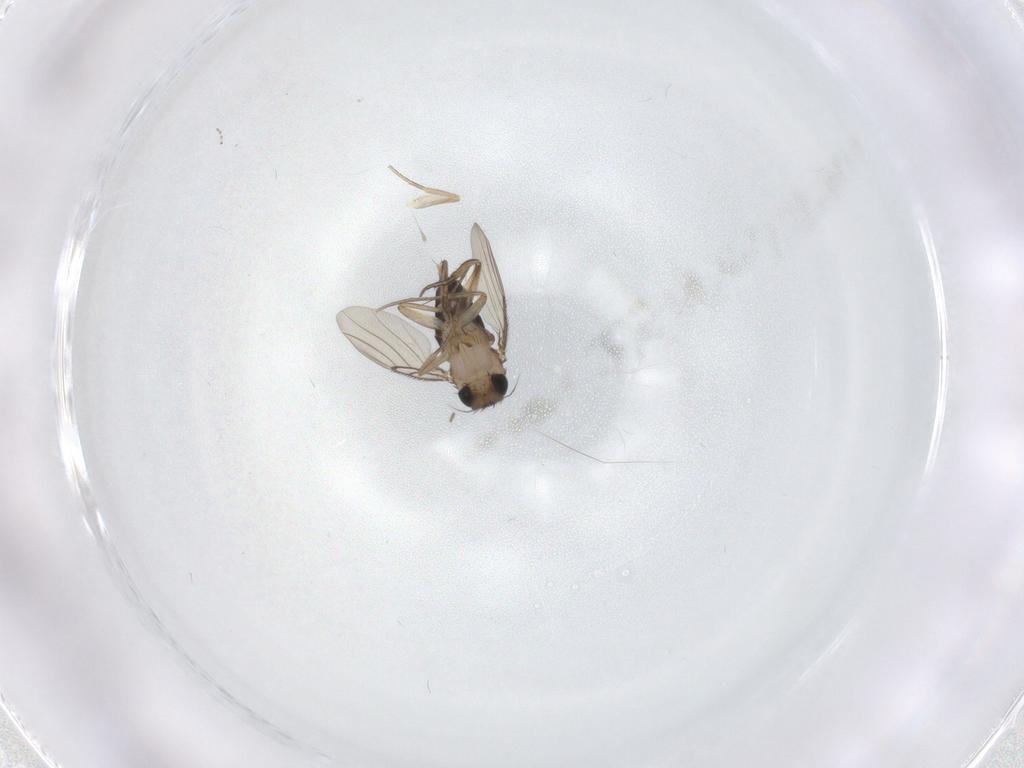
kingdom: Animalia
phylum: Arthropoda
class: Insecta
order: Diptera
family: Phoridae
